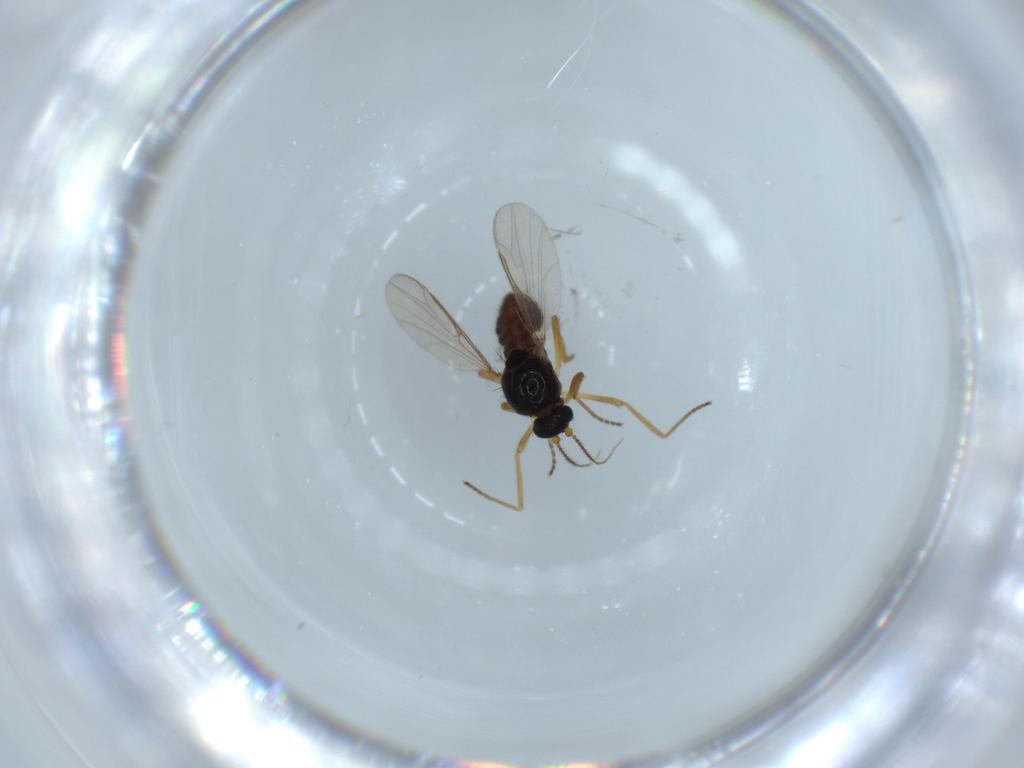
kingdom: Animalia
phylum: Arthropoda
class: Insecta
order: Diptera
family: Ceratopogonidae
